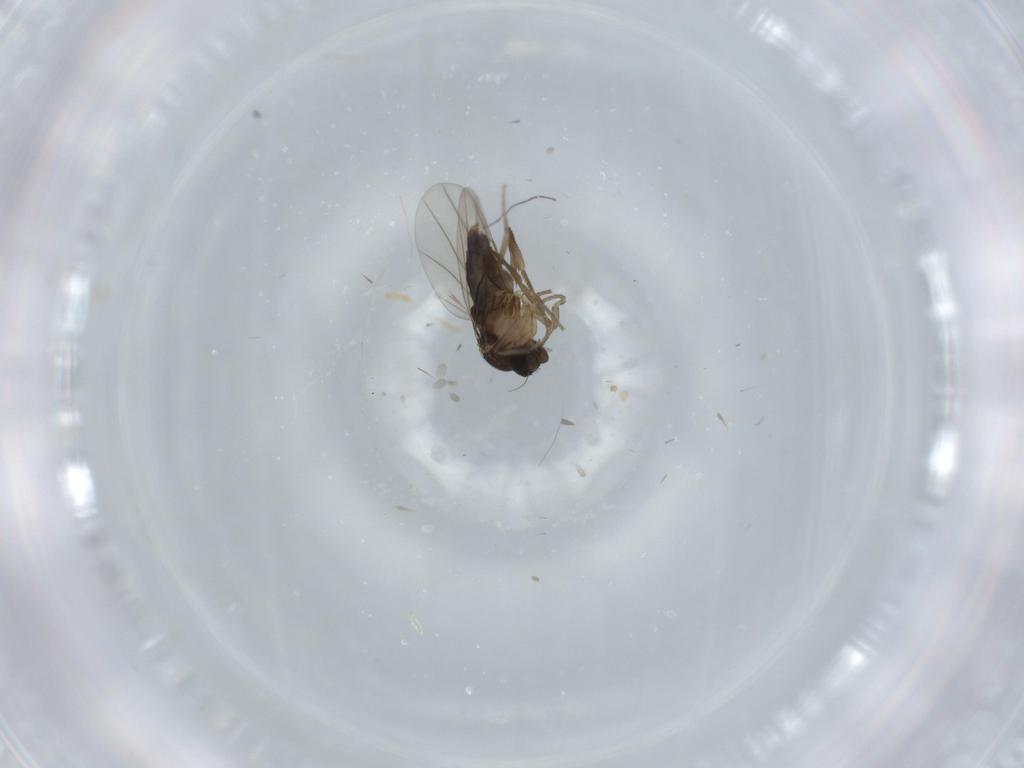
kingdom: Animalia
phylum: Arthropoda
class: Insecta
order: Diptera
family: Phoridae
